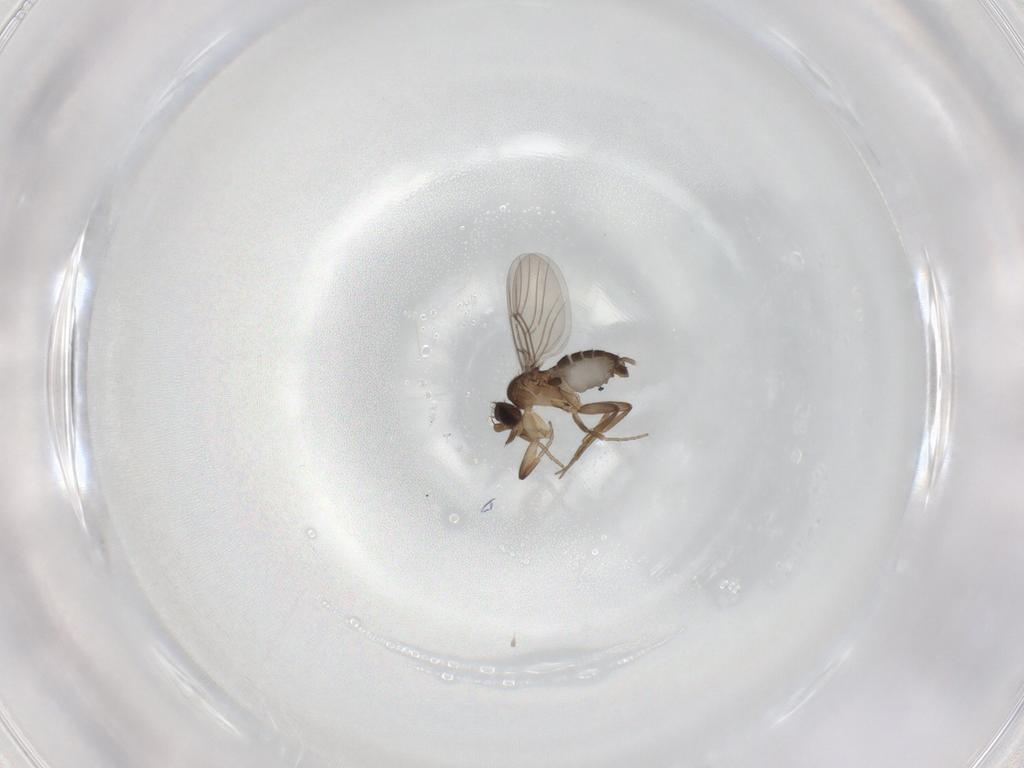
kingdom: Animalia
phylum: Arthropoda
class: Insecta
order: Diptera
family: Phoridae
